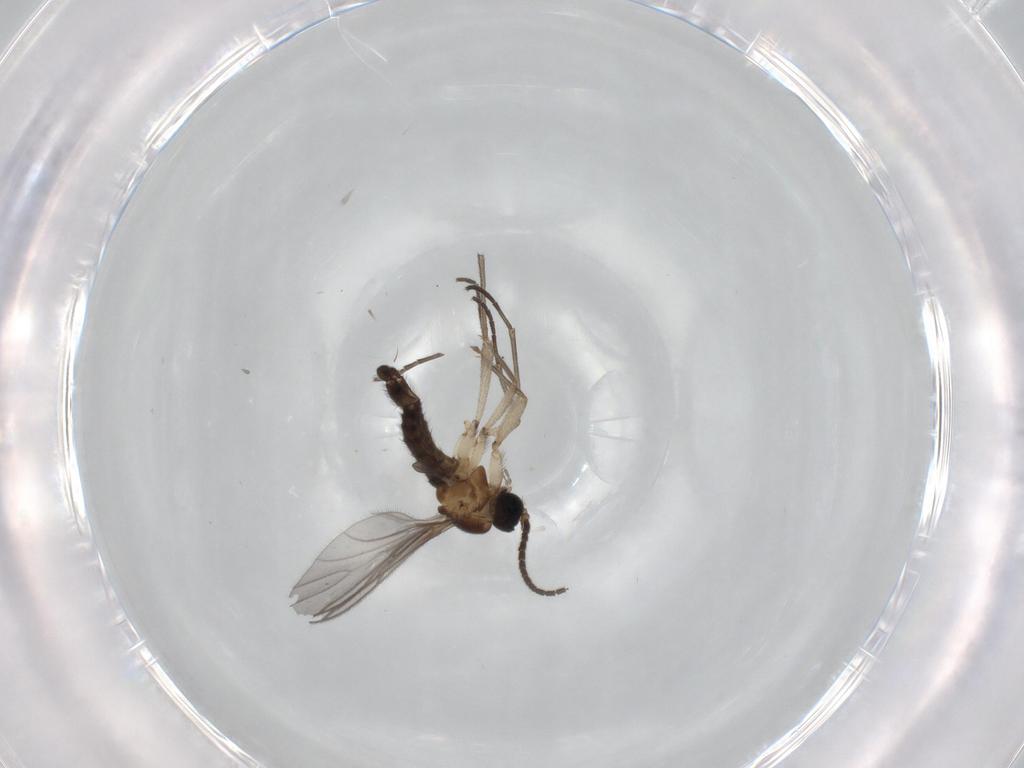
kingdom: Animalia
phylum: Arthropoda
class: Insecta
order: Diptera
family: Sciaridae
